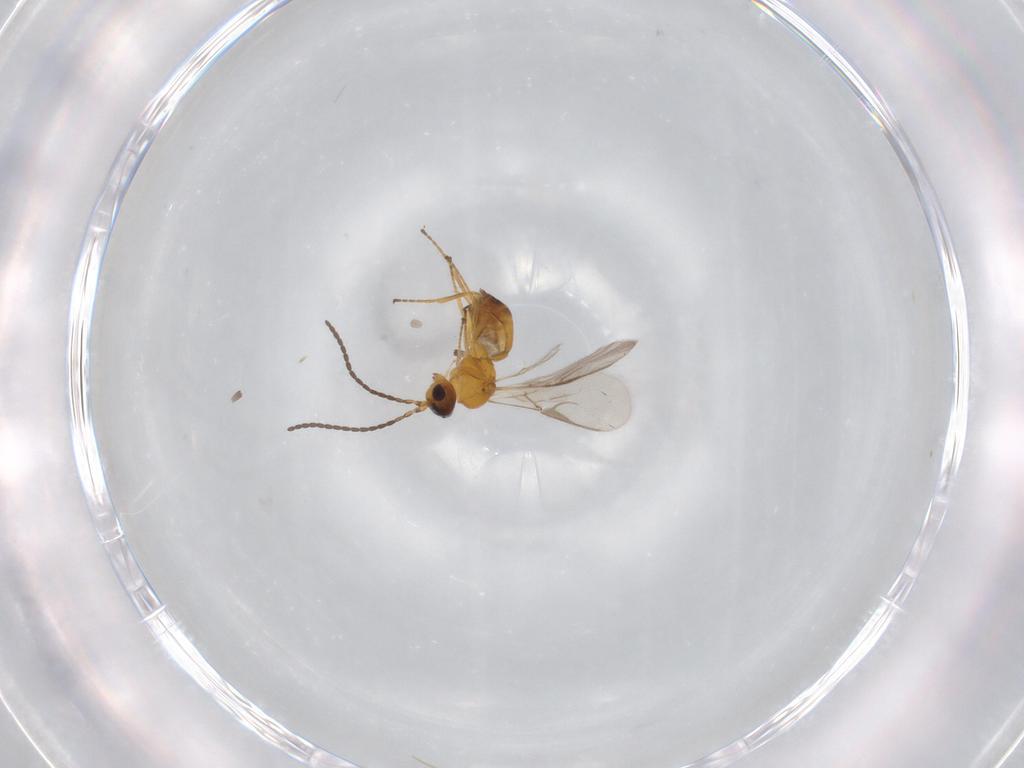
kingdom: Animalia
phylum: Arthropoda
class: Insecta
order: Hymenoptera
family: Braconidae
